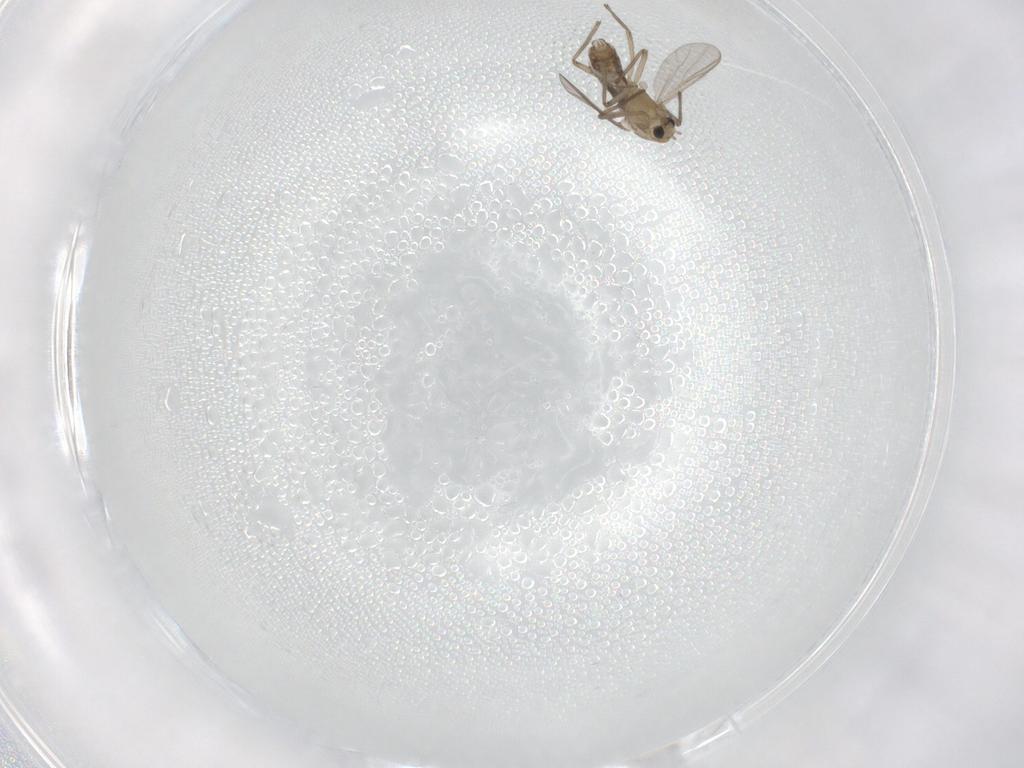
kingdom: Animalia
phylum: Arthropoda
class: Insecta
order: Diptera
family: Chironomidae
